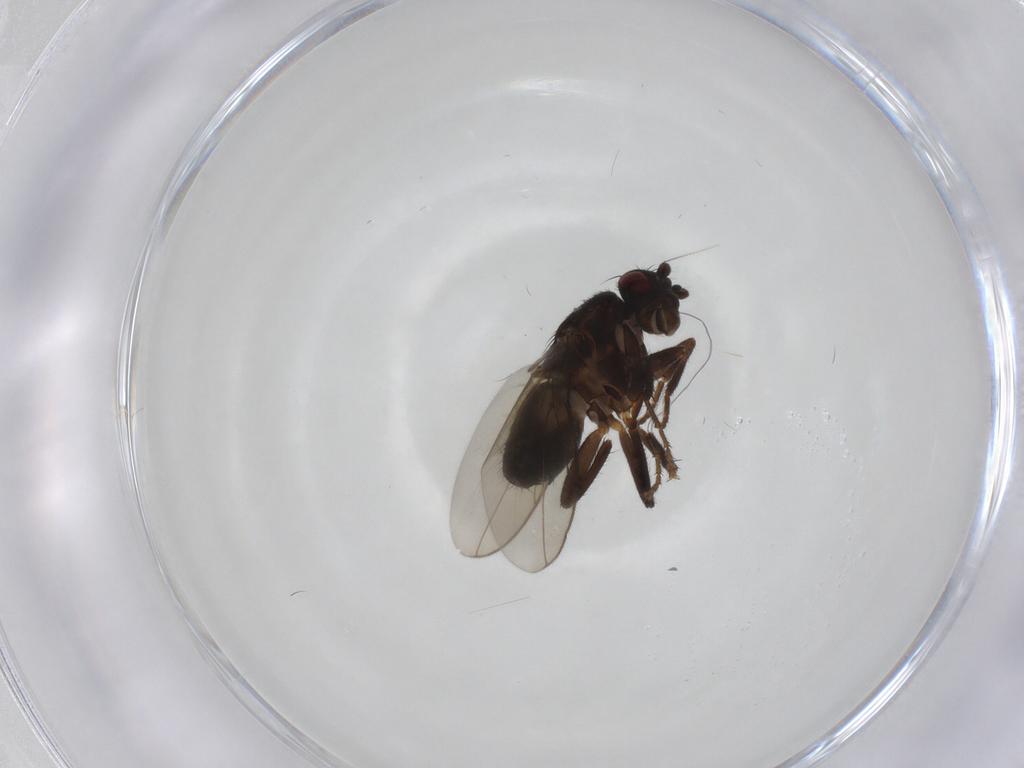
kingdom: Animalia
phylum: Arthropoda
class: Insecta
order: Diptera
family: Sphaeroceridae
